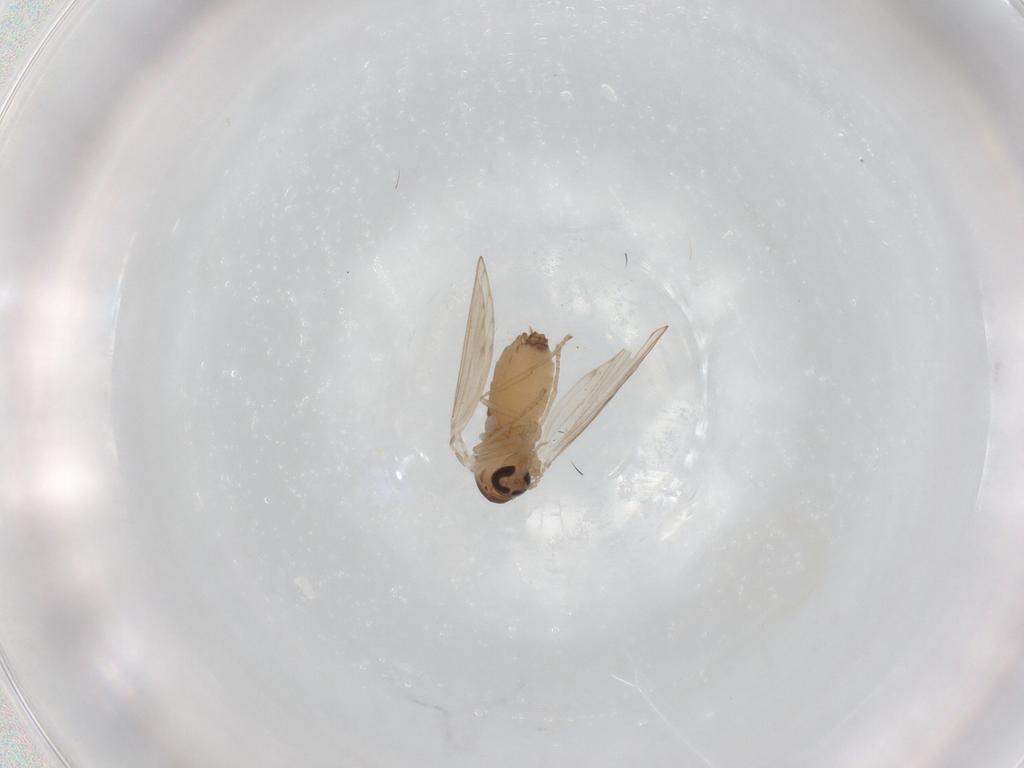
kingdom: Animalia
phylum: Arthropoda
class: Insecta
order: Diptera
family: Psychodidae
